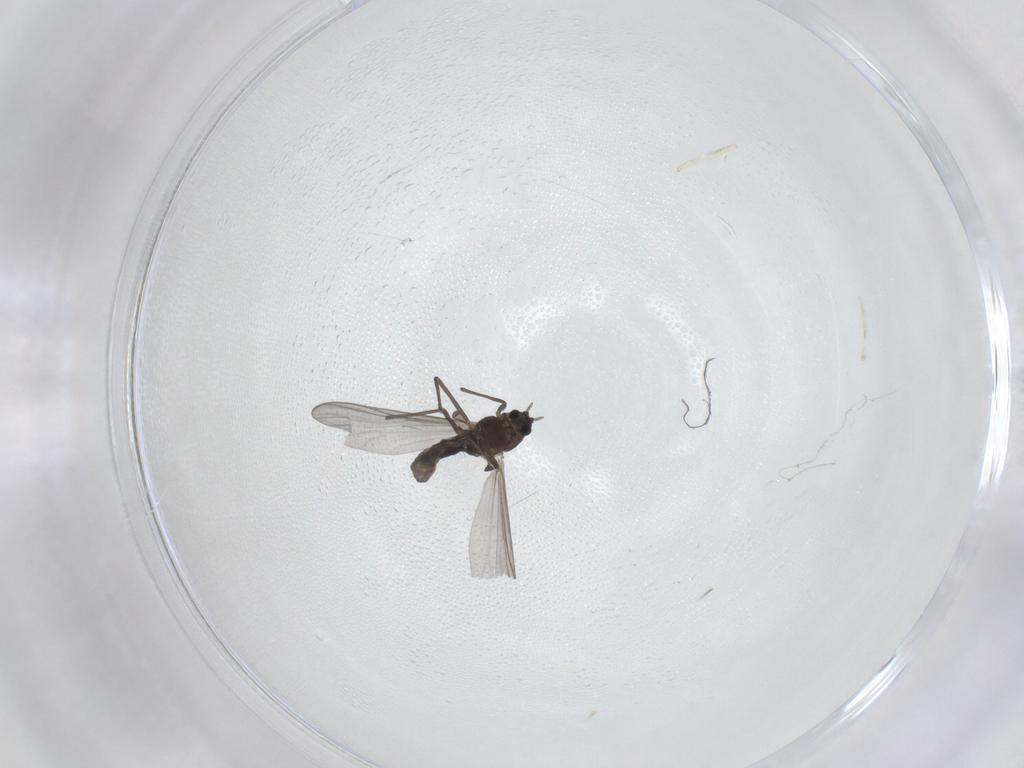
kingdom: Animalia
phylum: Arthropoda
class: Insecta
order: Diptera
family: Chironomidae
